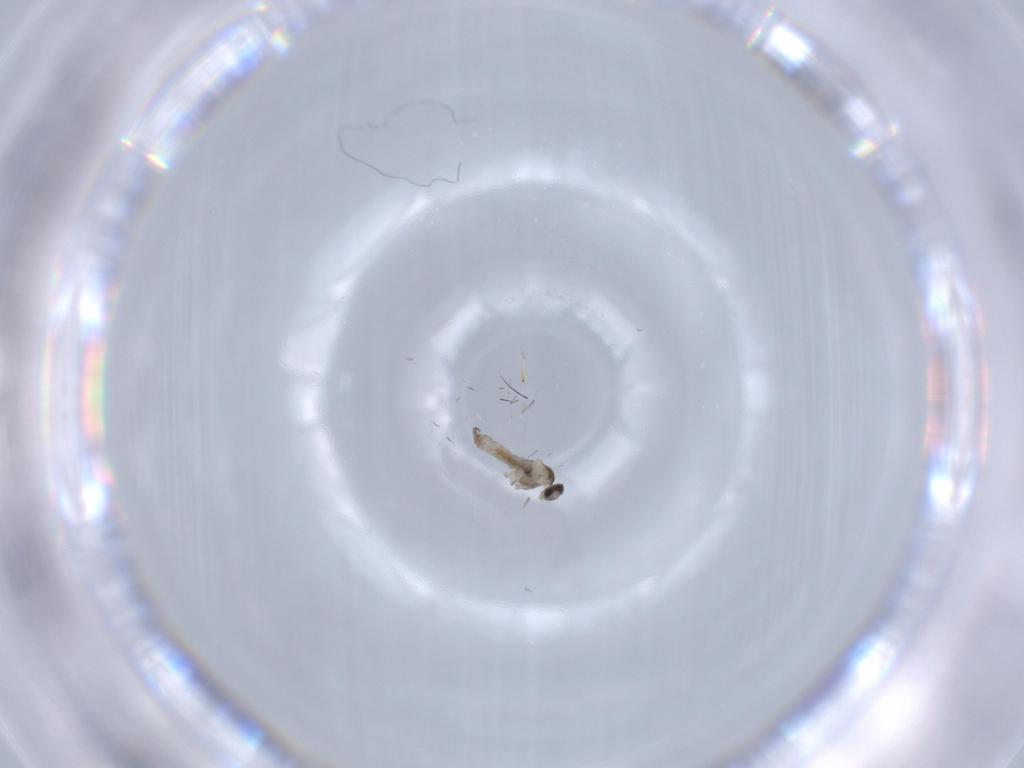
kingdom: Animalia
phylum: Arthropoda
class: Insecta
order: Diptera
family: Cecidomyiidae
